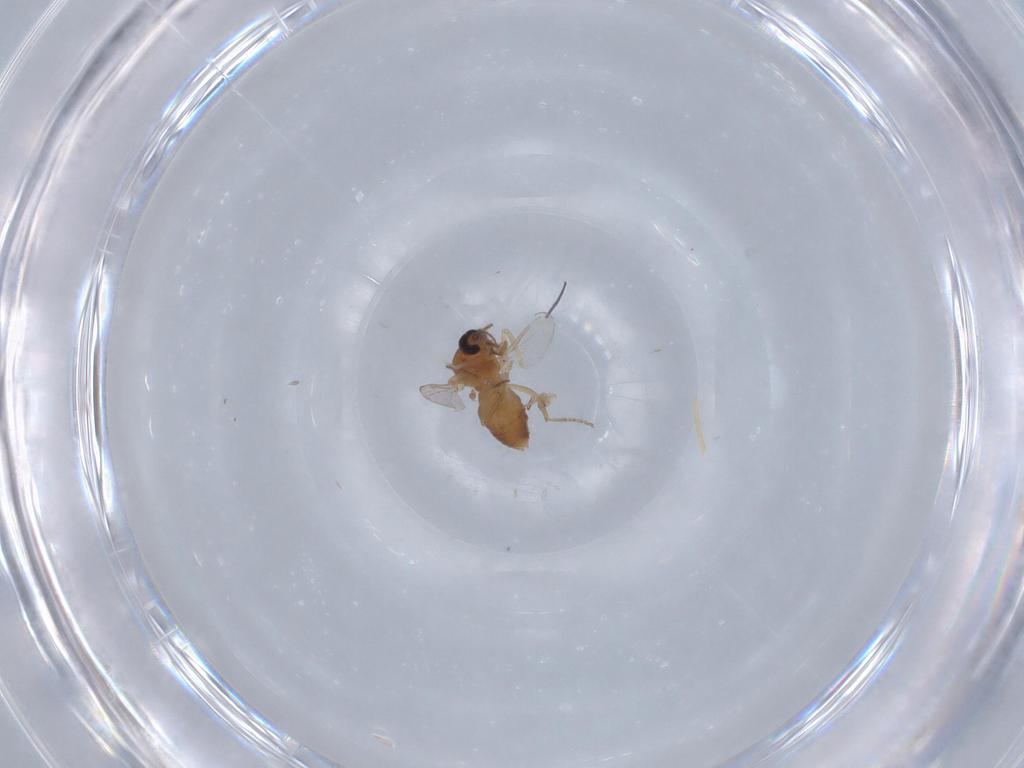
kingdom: Animalia
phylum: Arthropoda
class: Insecta
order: Diptera
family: Ceratopogonidae
